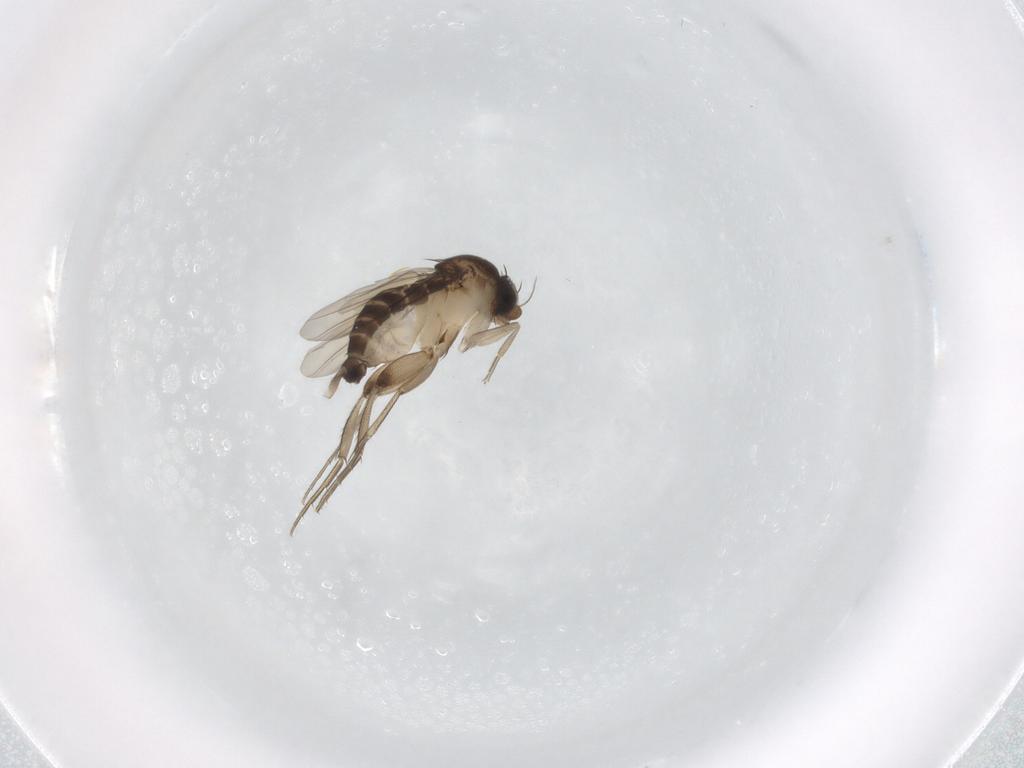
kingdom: Animalia
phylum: Arthropoda
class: Insecta
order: Diptera
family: Phoridae
